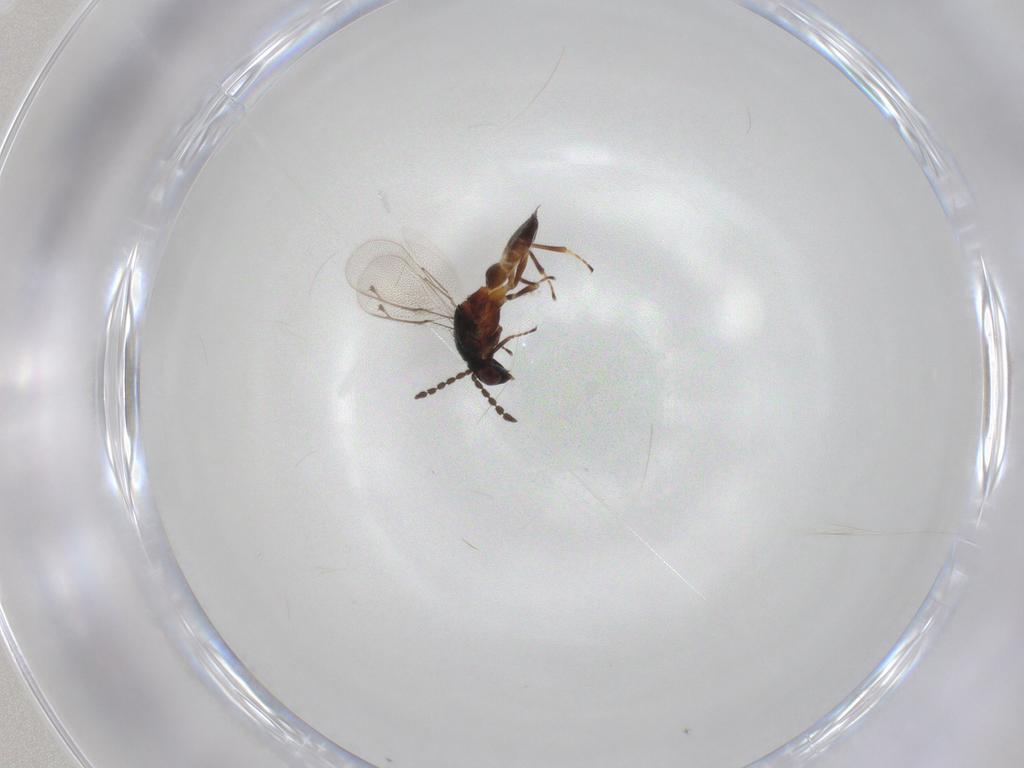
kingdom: Animalia
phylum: Arthropoda
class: Insecta
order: Hymenoptera
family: Eulophidae
